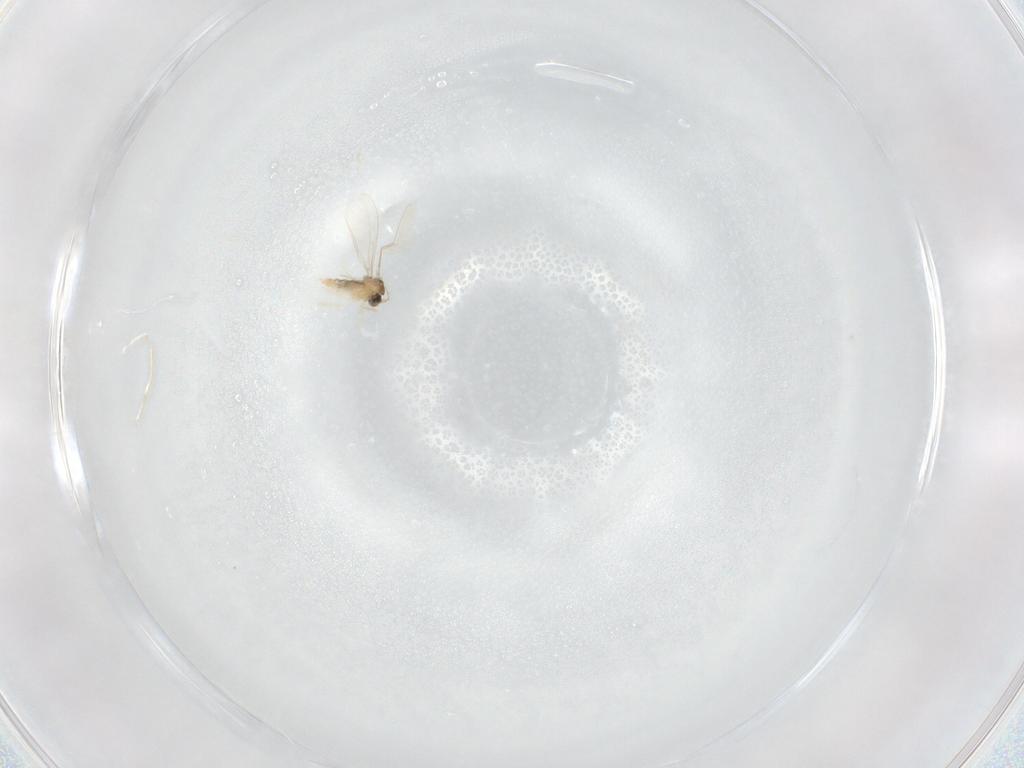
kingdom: Animalia
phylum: Arthropoda
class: Insecta
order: Diptera
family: Cecidomyiidae
